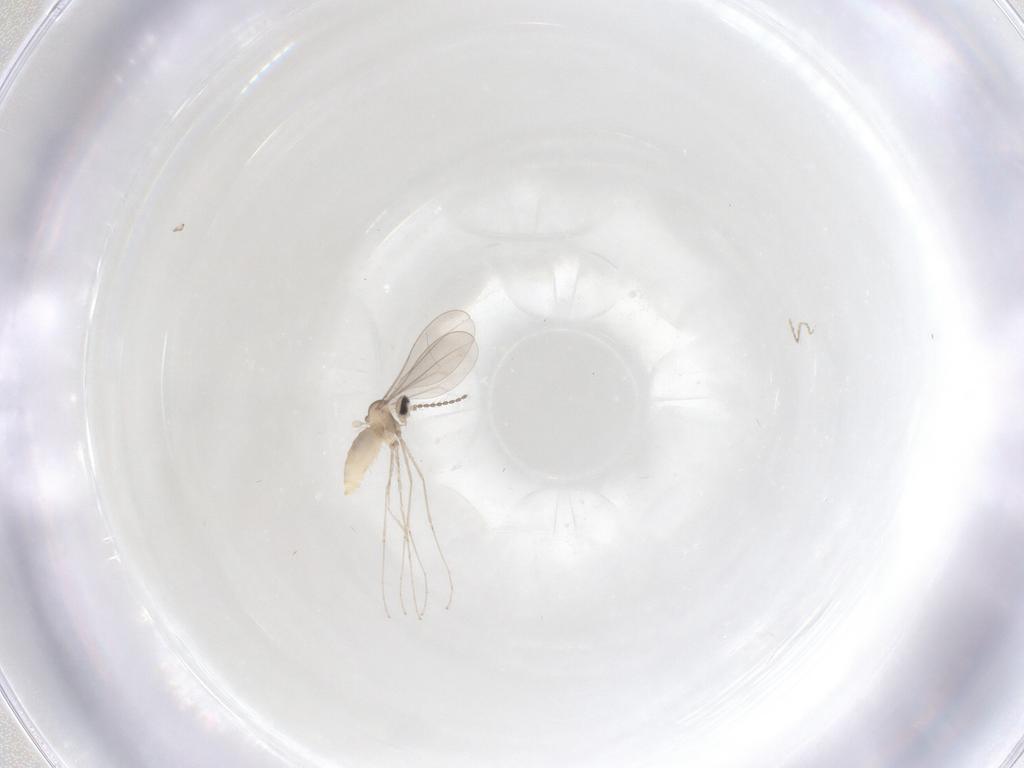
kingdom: Animalia
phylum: Arthropoda
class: Insecta
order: Diptera
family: Cecidomyiidae
